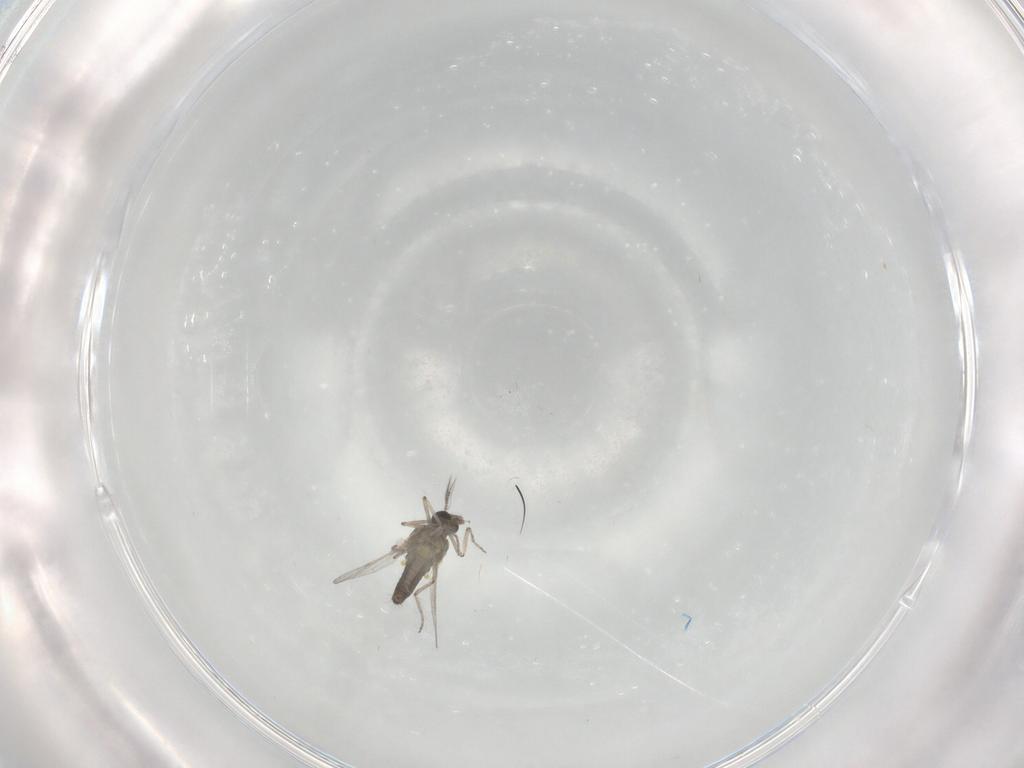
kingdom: Animalia
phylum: Arthropoda
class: Insecta
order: Diptera
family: Ceratopogonidae
